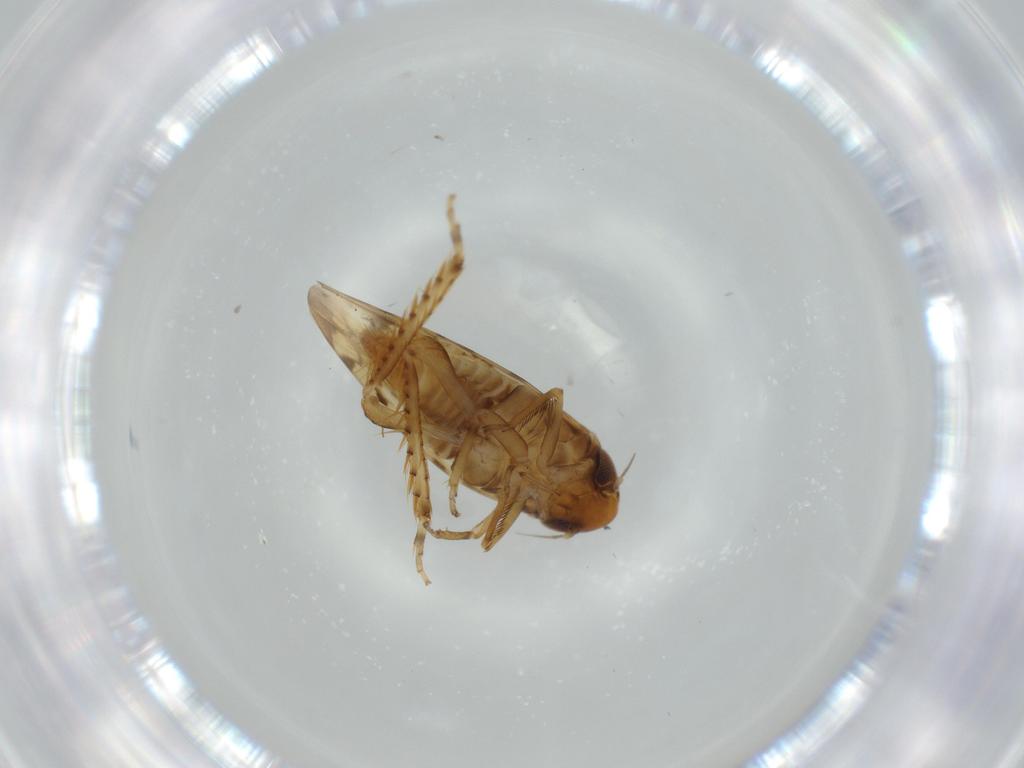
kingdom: Animalia
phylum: Arthropoda
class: Insecta
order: Hemiptera
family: Cicadellidae
